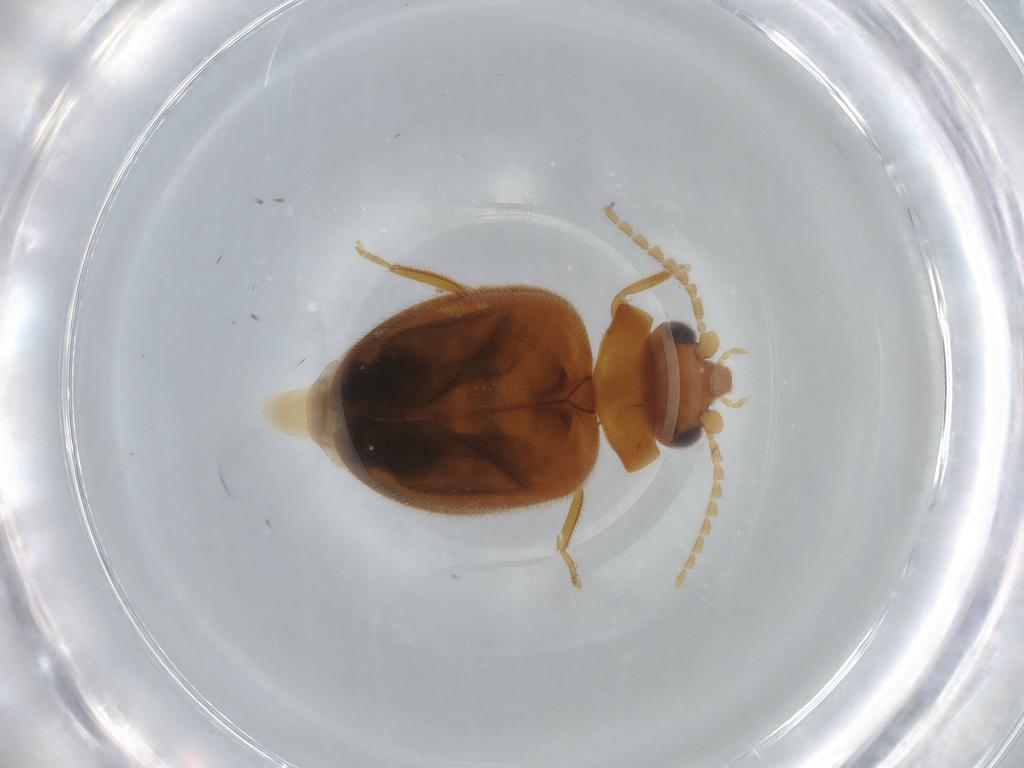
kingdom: Animalia
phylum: Arthropoda
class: Insecta
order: Coleoptera
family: Scirtidae
